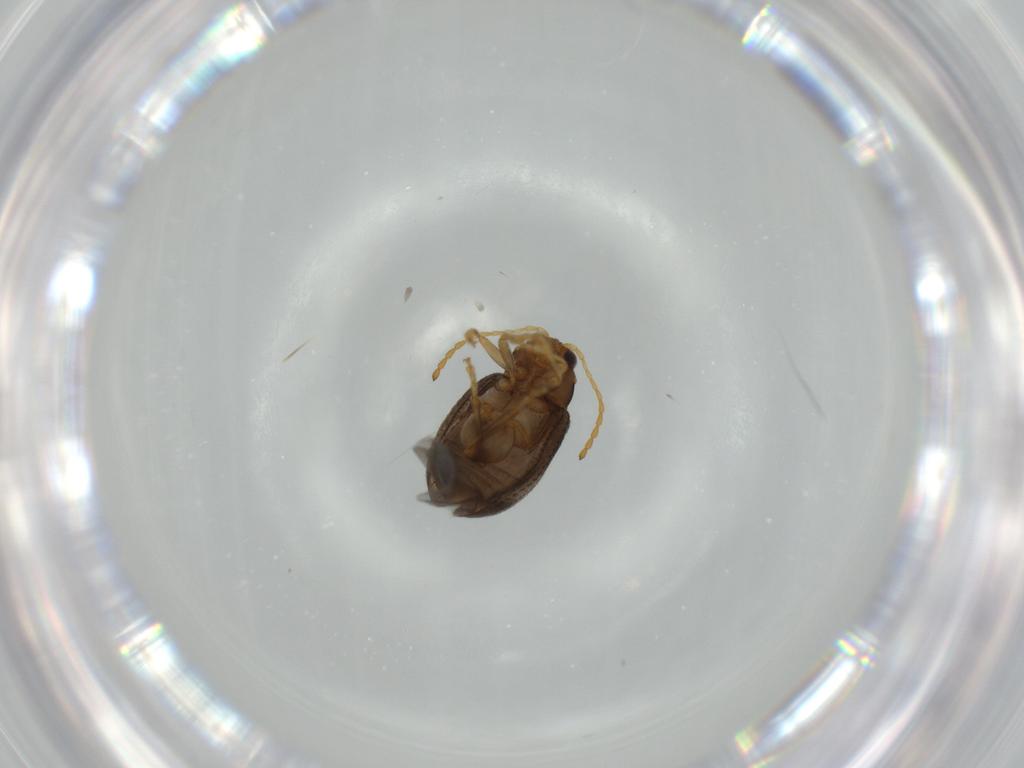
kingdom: Animalia
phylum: Arthropoda
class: Insecta
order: Coleoptera
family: Chrysomelidae
